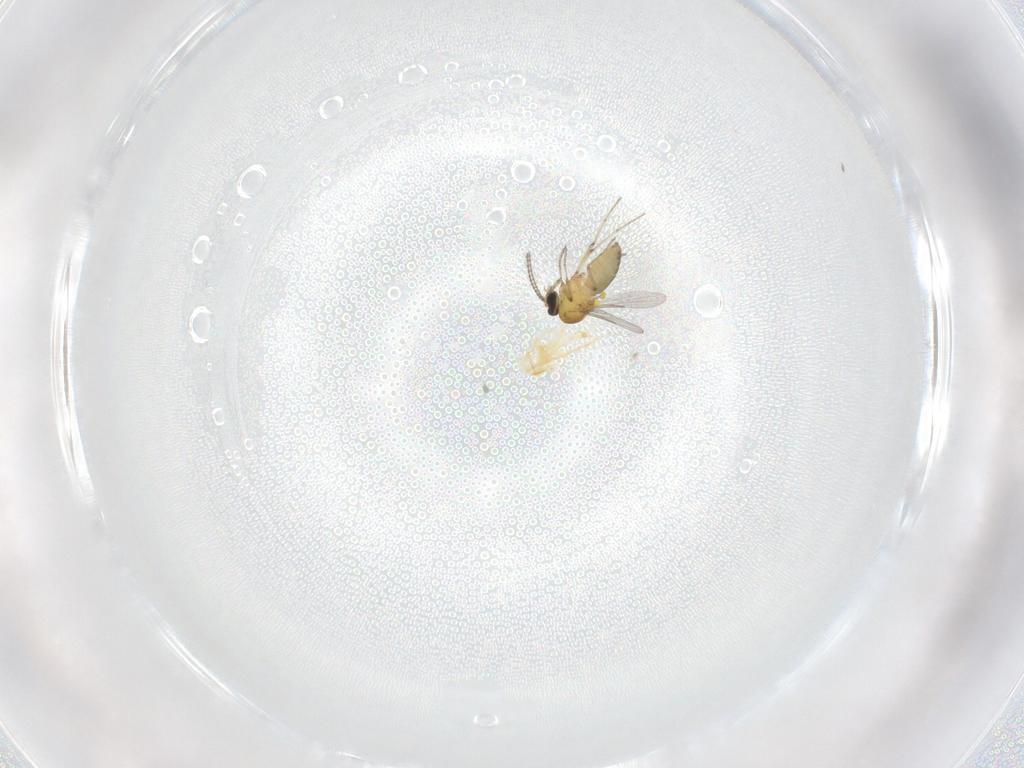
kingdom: Animalia
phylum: Arthropoda
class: Insecta
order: Diptera
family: Ceratopogonidae
